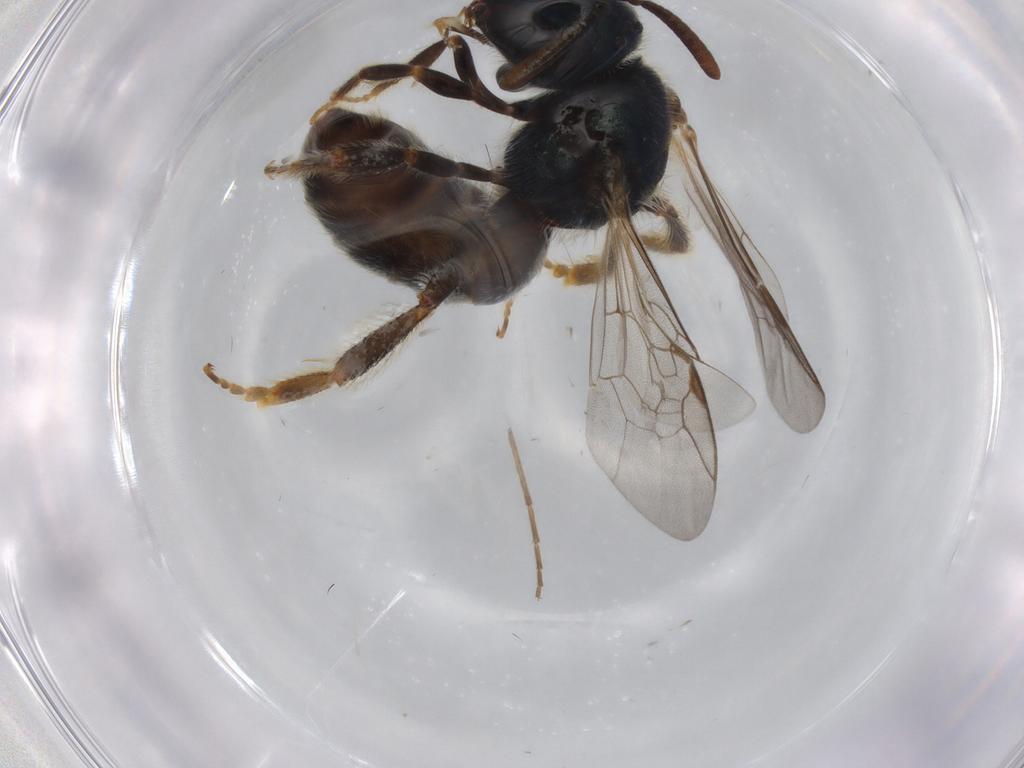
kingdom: Animalia
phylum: Arthropoda
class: Insecta
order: Hymenoptera
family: Halictidae
